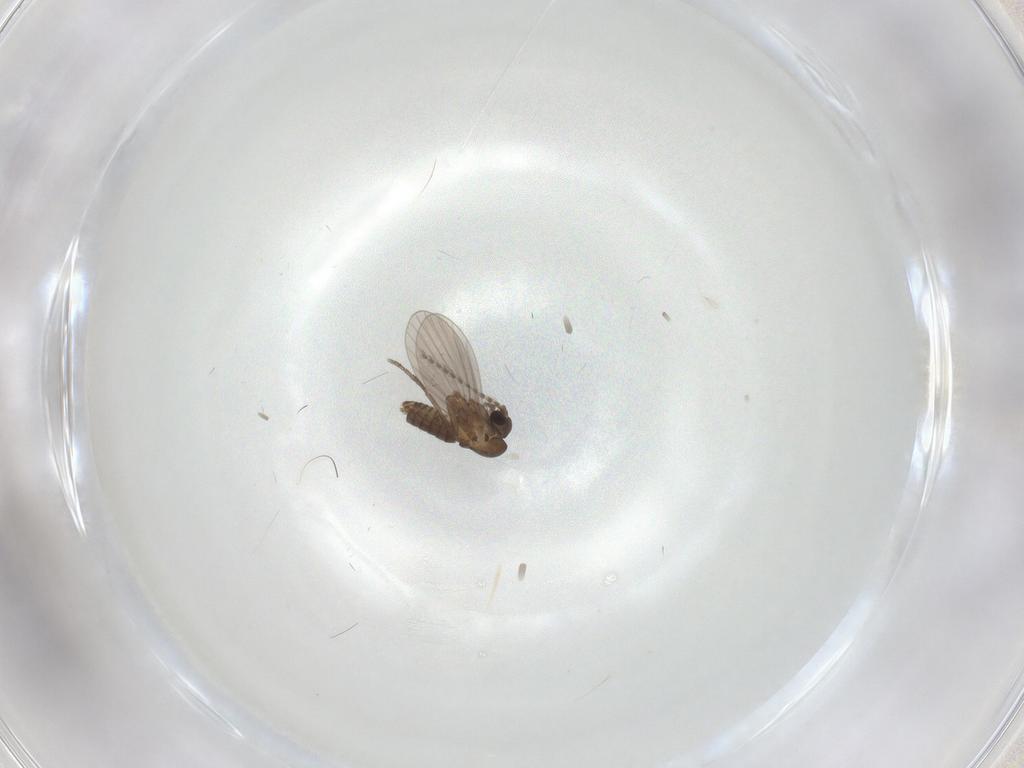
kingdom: Animalia
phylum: Arthropoda
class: Insecta
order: Diptera
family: Psychodidae
